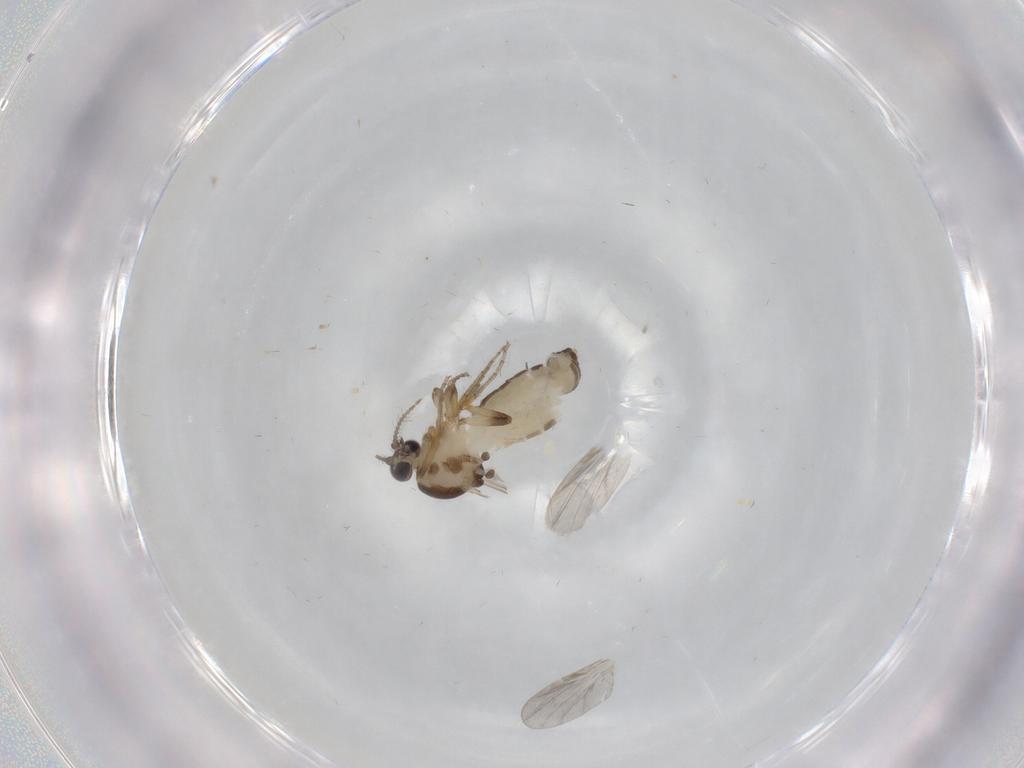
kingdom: Animalia
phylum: Arthropoda
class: Insecta
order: Diptera
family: Ceratopogonidae
